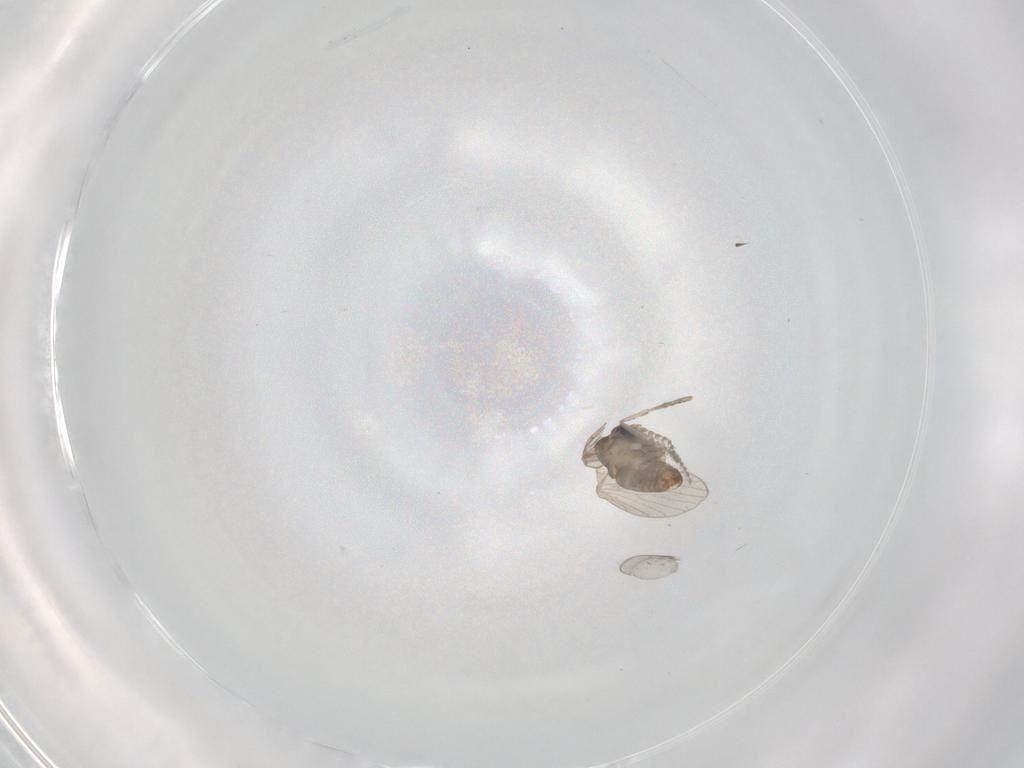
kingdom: Animalia
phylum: Arthropoda
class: Insecta
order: Diptera
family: Cecidomyiidae
